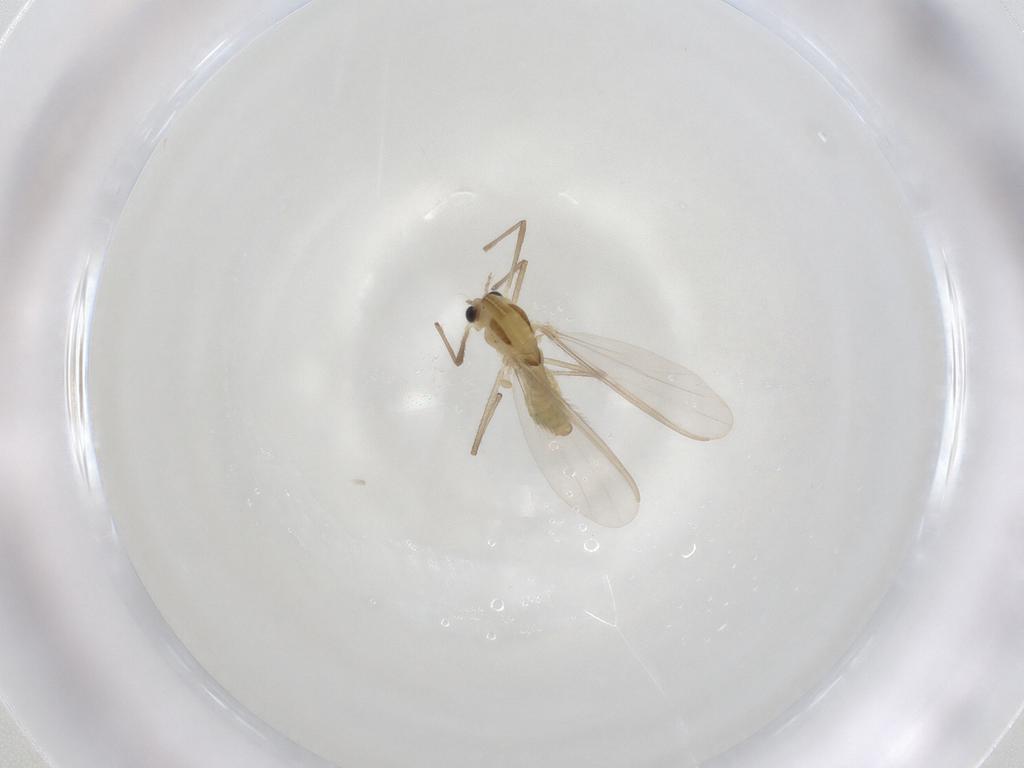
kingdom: Animalia
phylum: Arthropoda
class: Insecta
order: Diptera
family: Chironomidae
